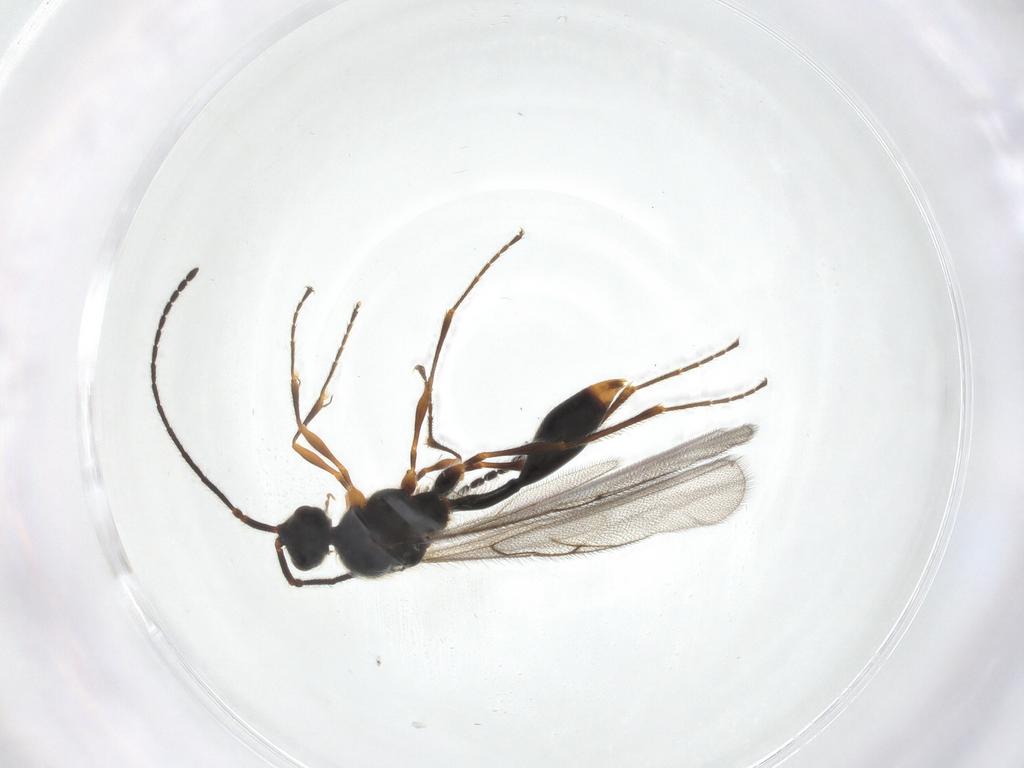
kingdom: Animalia
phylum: Arthropoda
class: Insecta
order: Hymenoptera
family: Diapriidae
